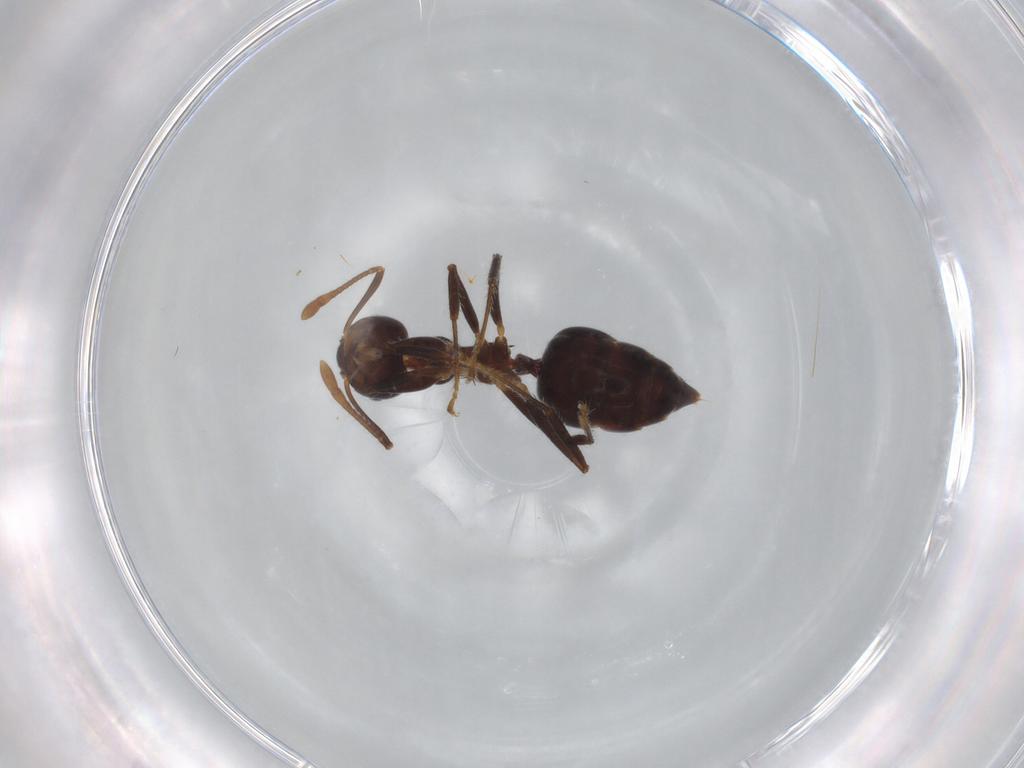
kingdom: Animalia
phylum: Arthropoda
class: Insecta
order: Hymenoptera
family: Formicidae
